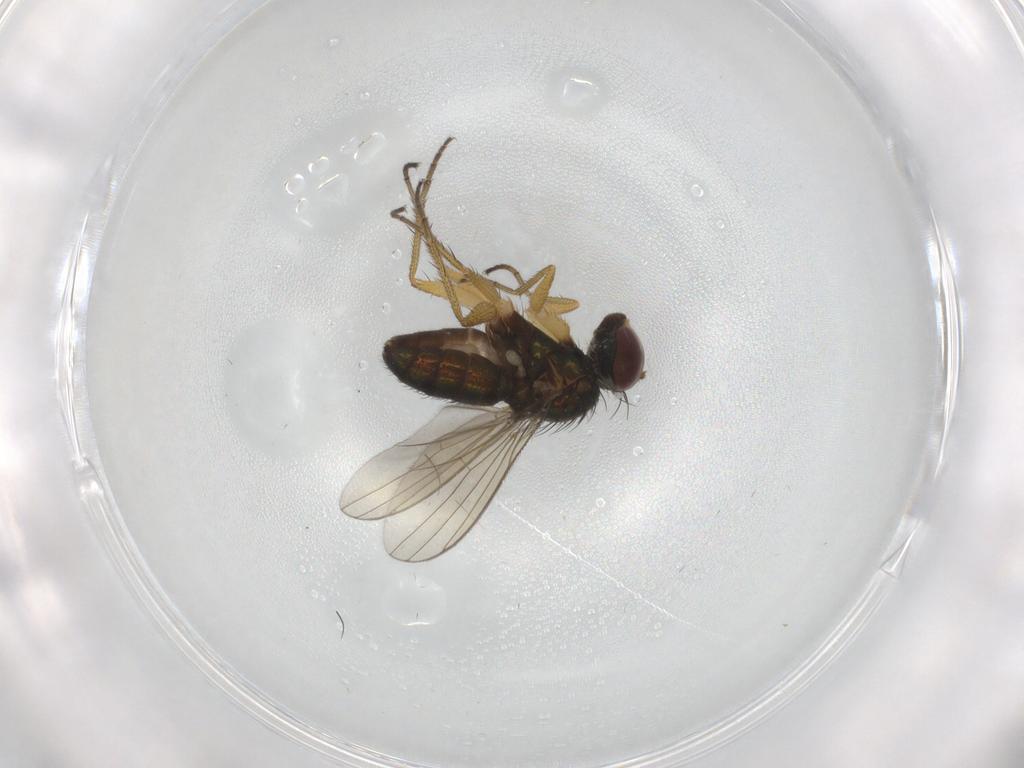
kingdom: Animalia
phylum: Arthropoda
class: Insecta
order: Diptera
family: Dolichopodidae
